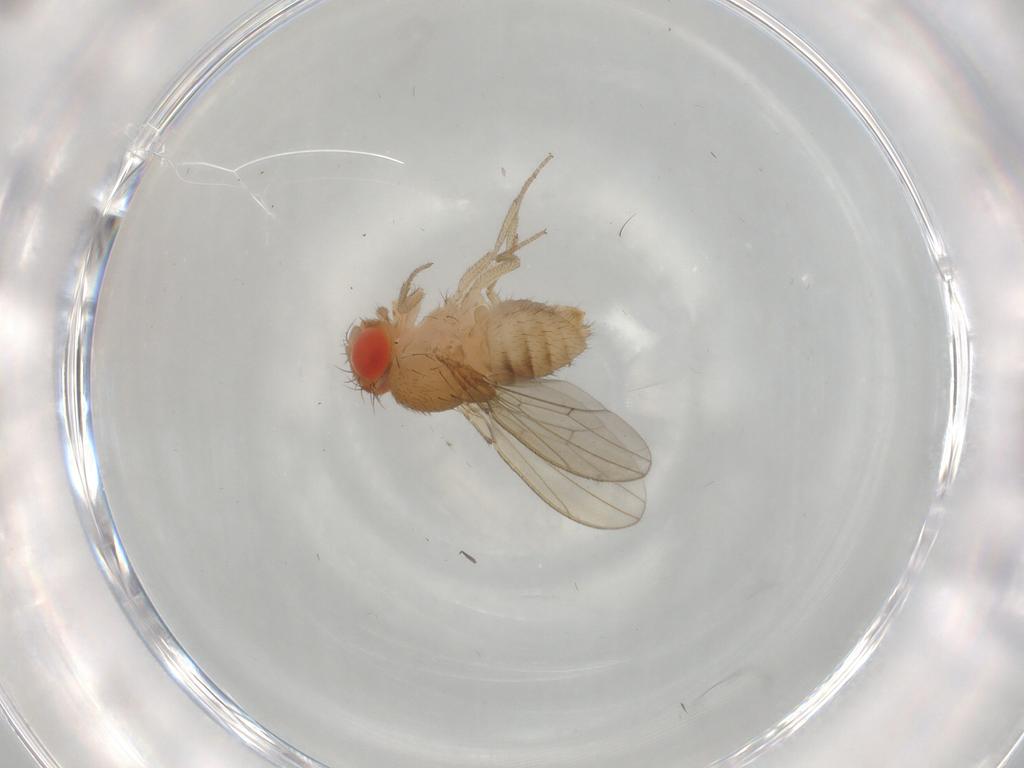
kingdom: Animalia
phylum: Arthropoda
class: Insecta
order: Diptera
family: Drosophilidae
